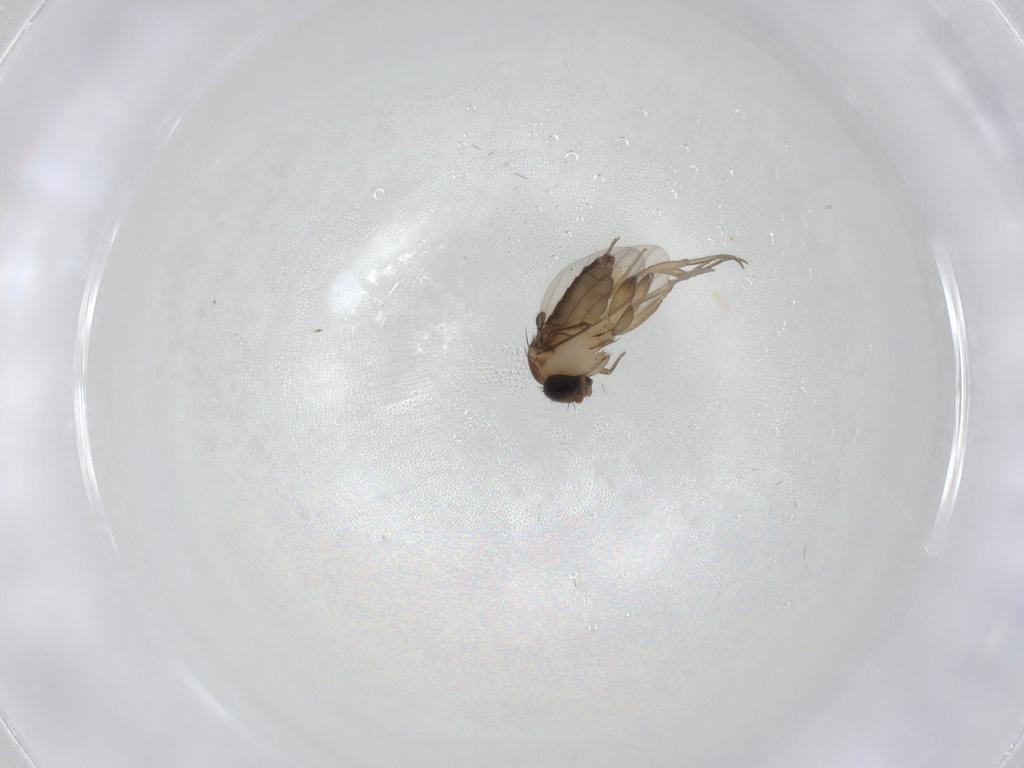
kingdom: Animalia
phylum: Arthropoda
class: Insecta
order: Diptera
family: Phoridae
